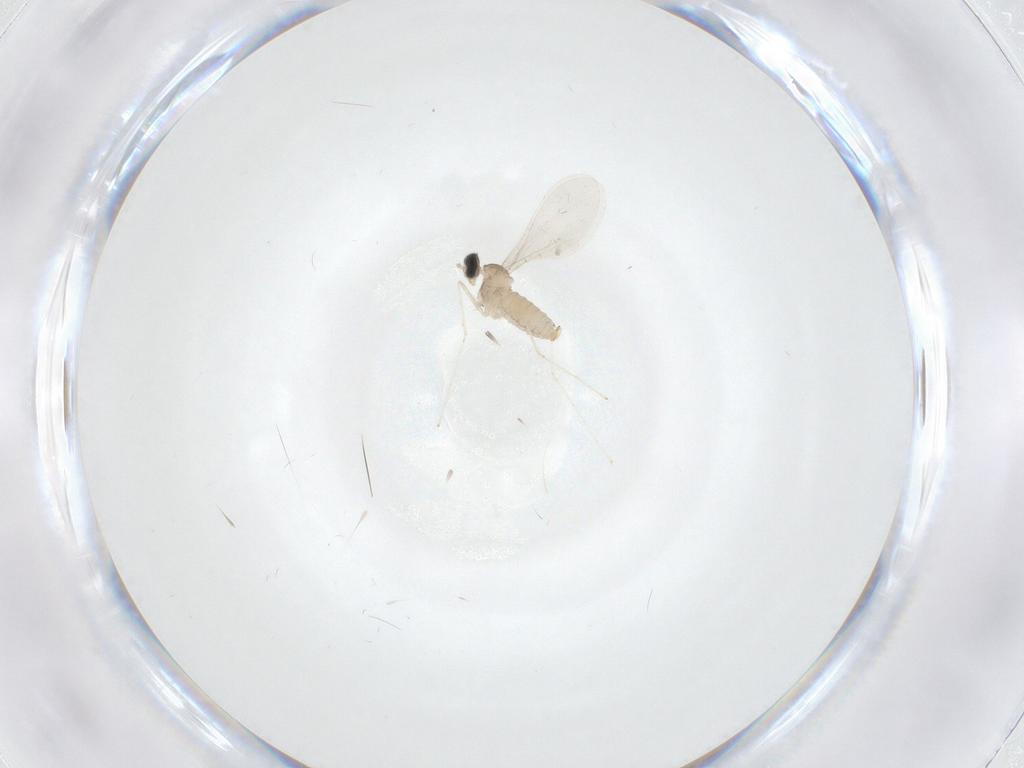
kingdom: Animalia
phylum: Arthropoda
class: Insecta
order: Diptera
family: Cecidomyiidae
